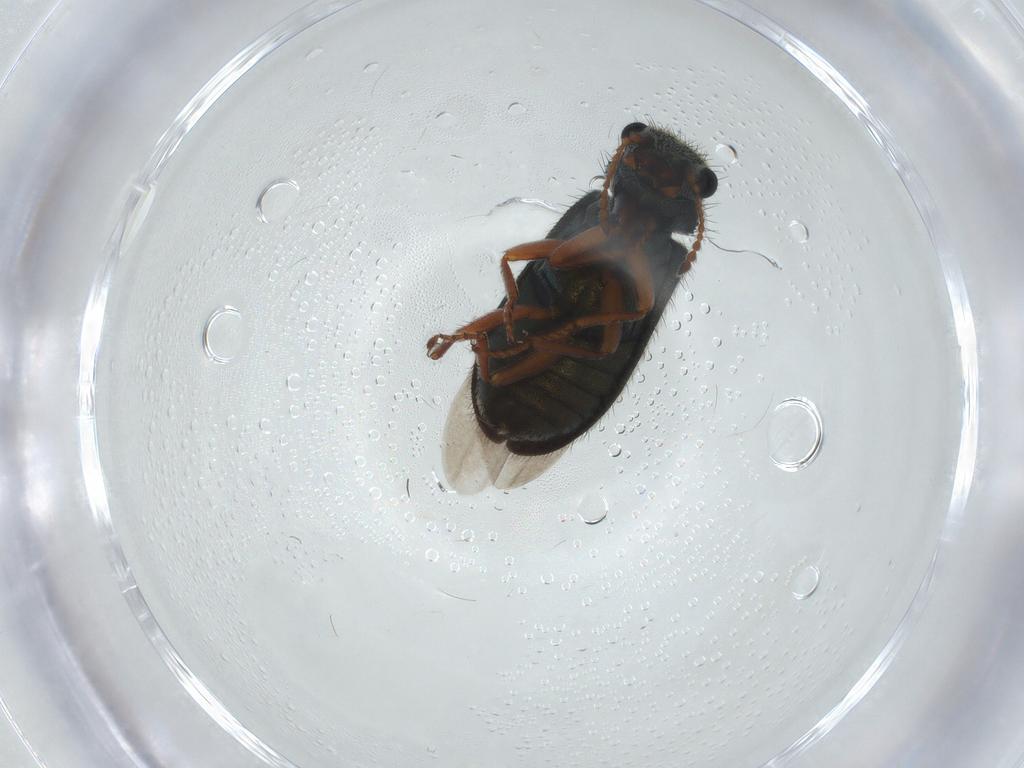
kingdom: Animalia
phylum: Arthropoda
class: Insecta
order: Coleoptera
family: Melyridae
